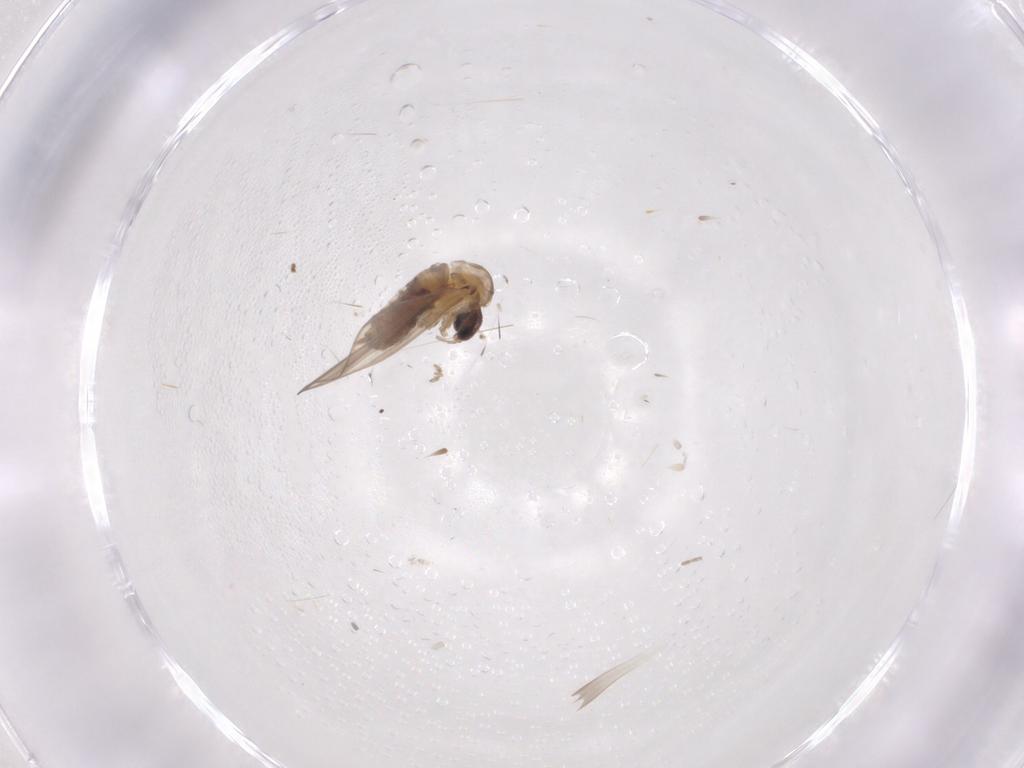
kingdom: Animalia
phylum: Arthropoda
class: Insecta
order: Diptera
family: Sciaridae
